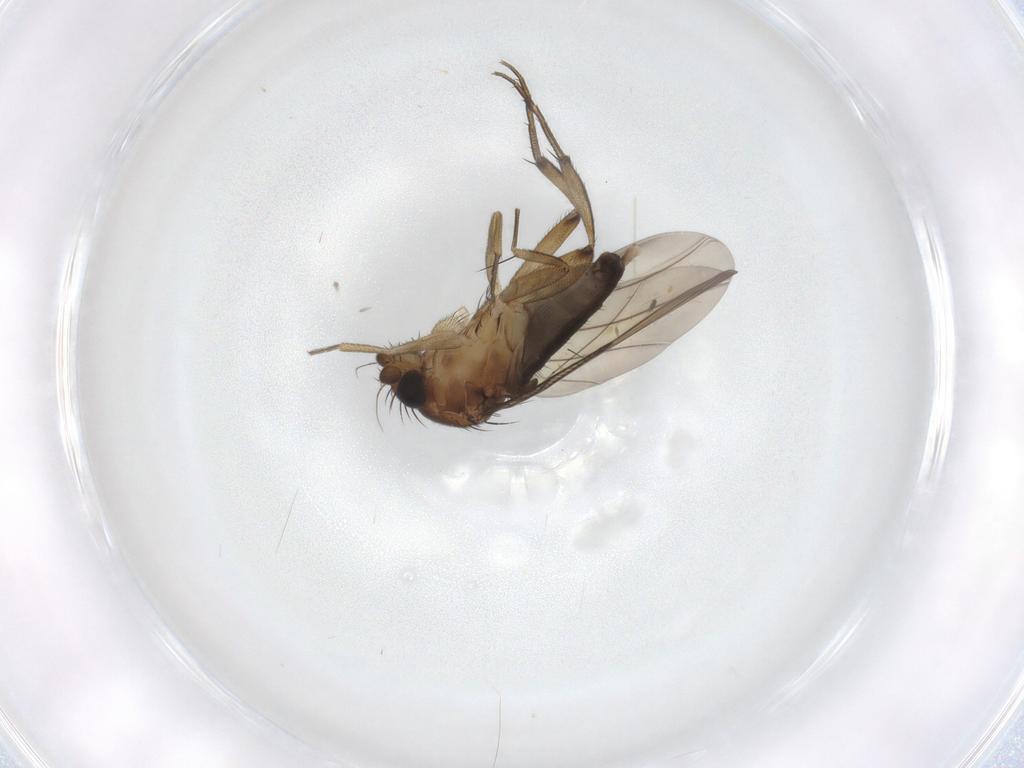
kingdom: Animalia
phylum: Arthropoda
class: Insecta
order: Diptera
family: Phoridae
